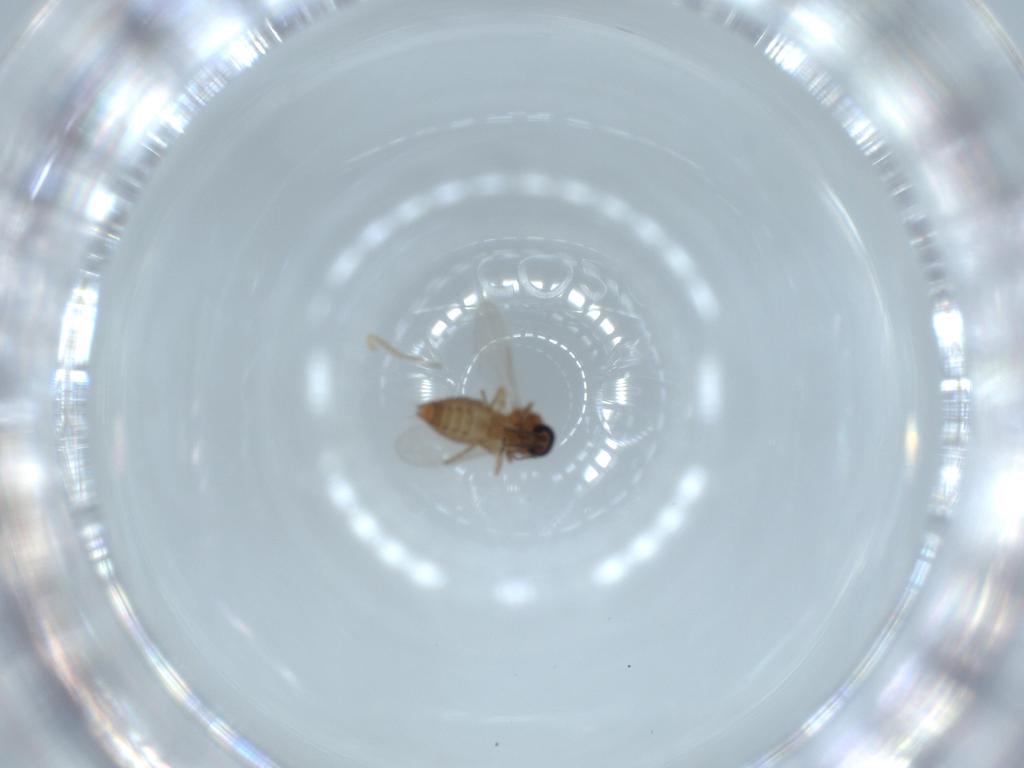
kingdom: Animalia
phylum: Arthropoda
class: Insecta
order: Diptera
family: Ceratopogonidae
